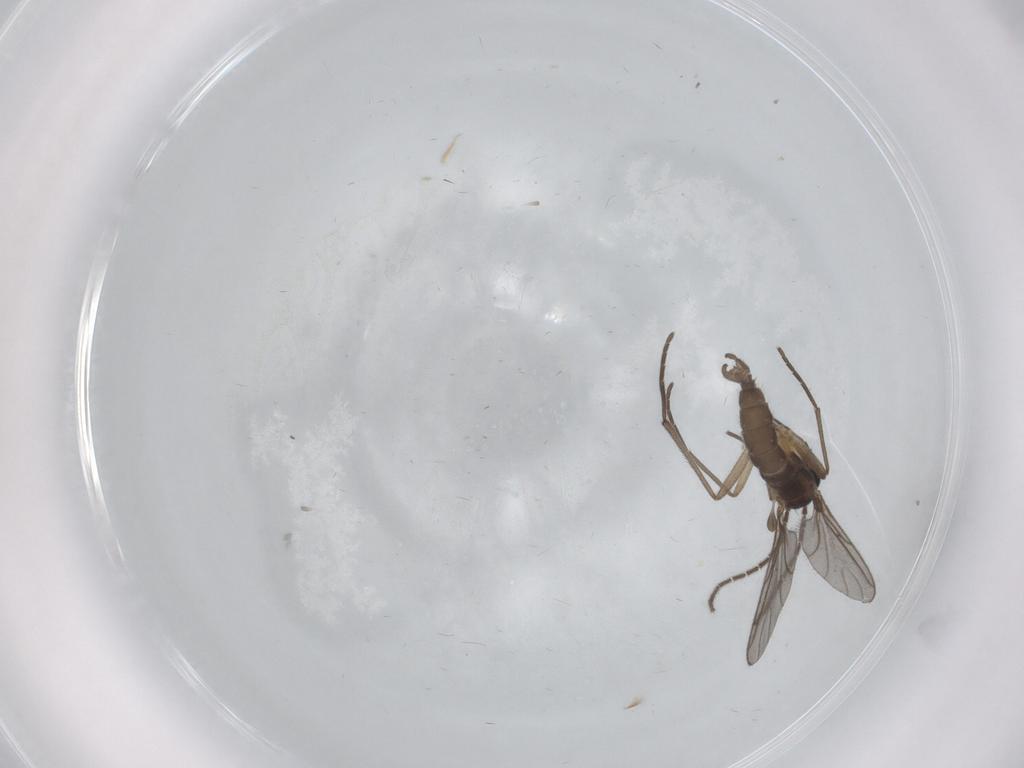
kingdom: Animalia
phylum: Arthropoda
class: Insecta
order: Diptera
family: Sciaridae
